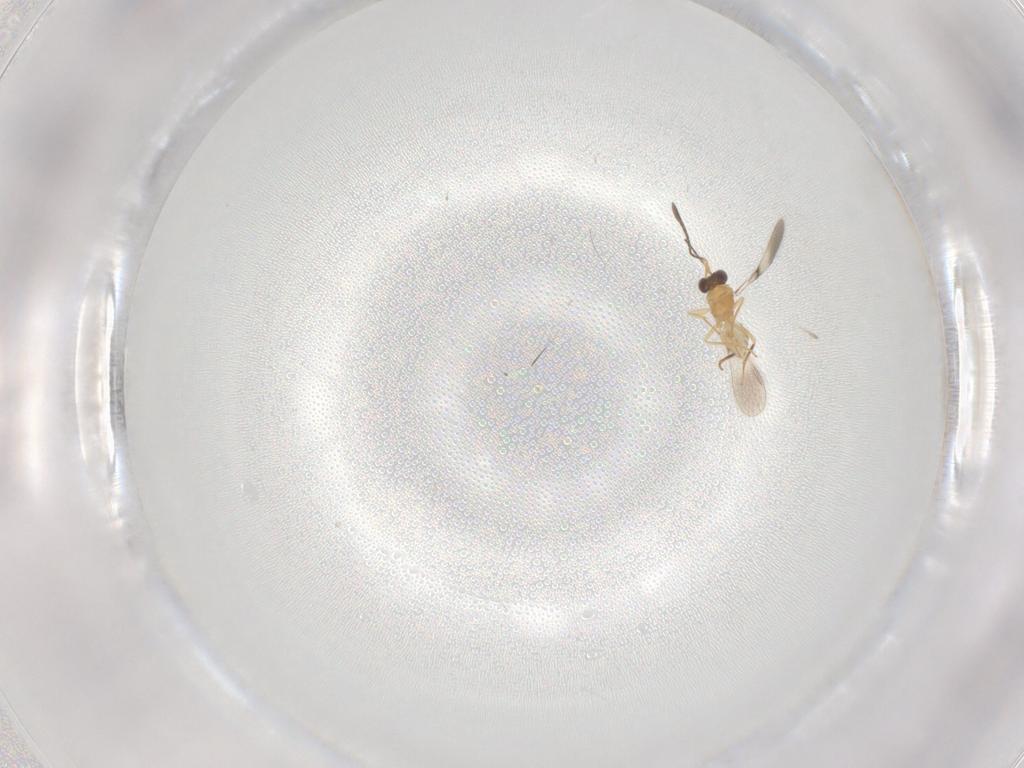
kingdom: Animalia
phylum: Arthropoda
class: Insecta
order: Hymenoptera
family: Mymaridae
